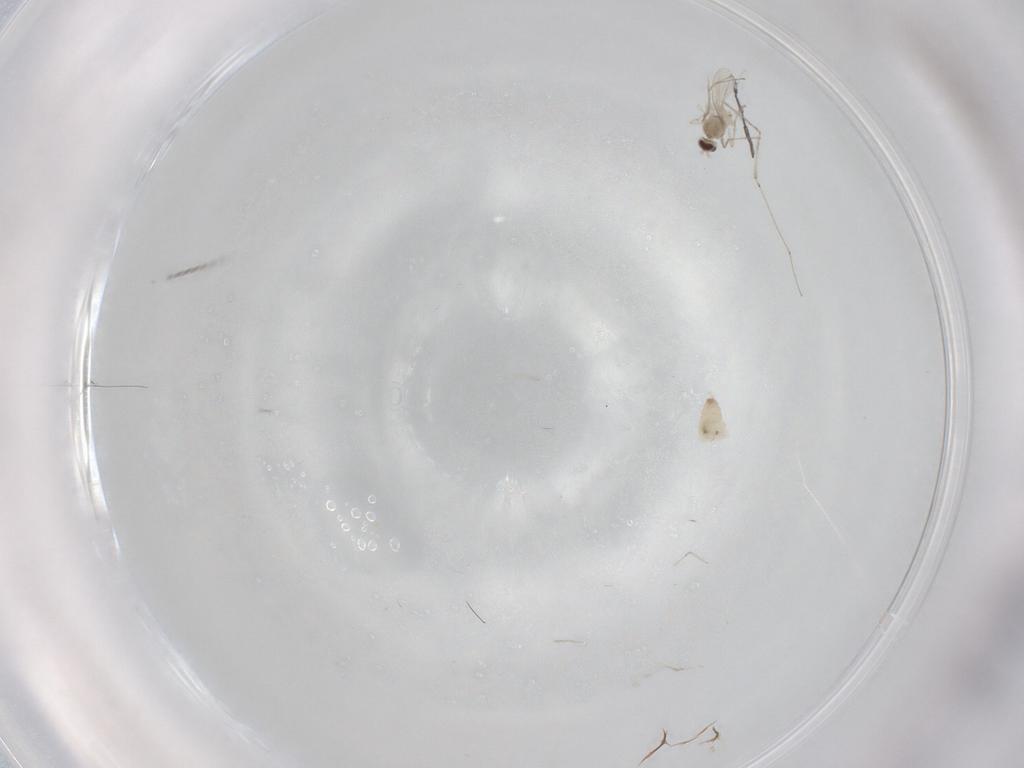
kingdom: Animalia
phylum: Arthropoda
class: Insecta
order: Diptera
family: Cecidomyiidae
